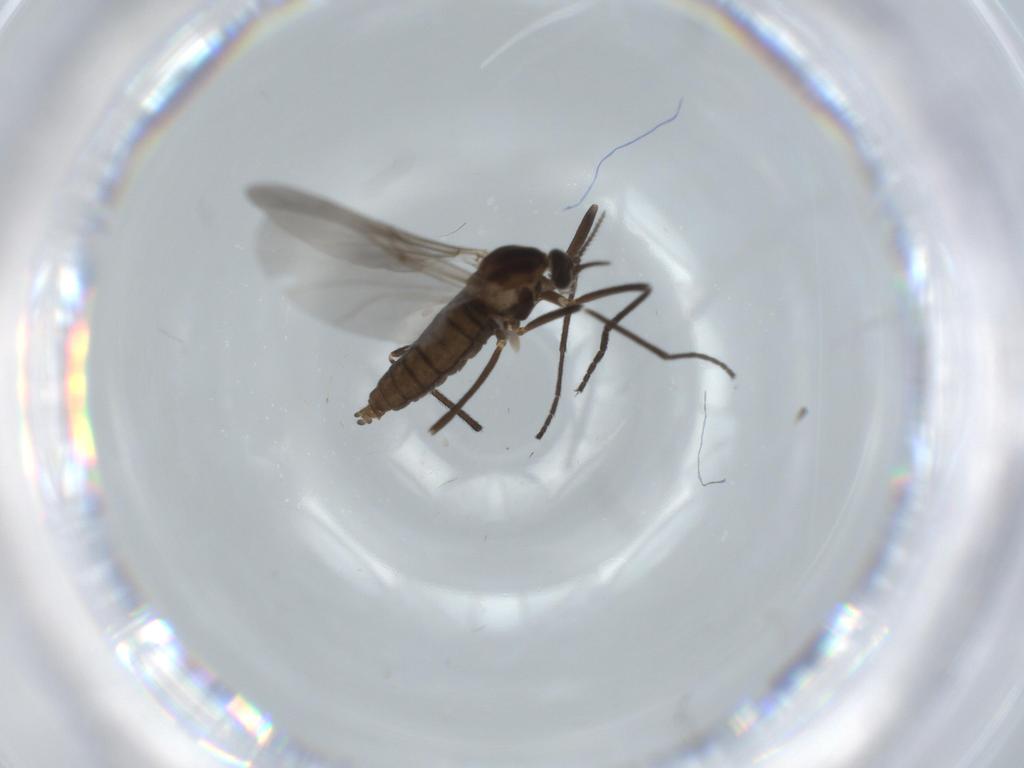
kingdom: Animalia
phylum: Arthropoda
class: Insecta
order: Diptera
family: Cecidomyiidae
